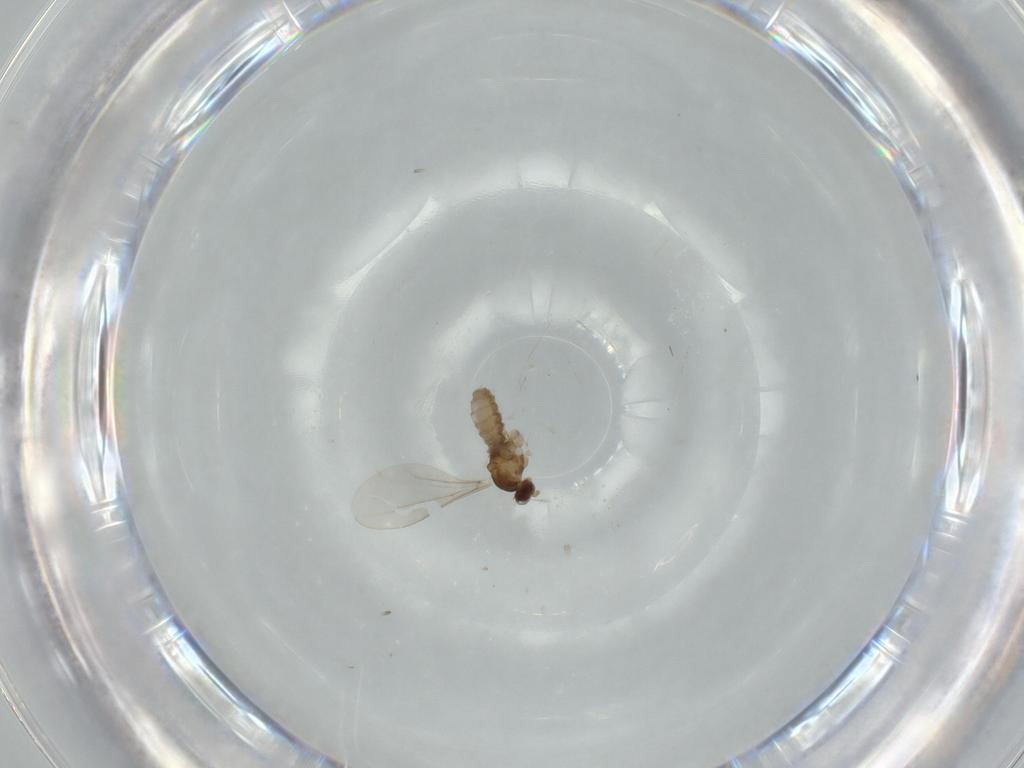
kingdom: Animalia
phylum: Arthropoda
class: Insecta
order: Diptera
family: Cecidomyiidae
